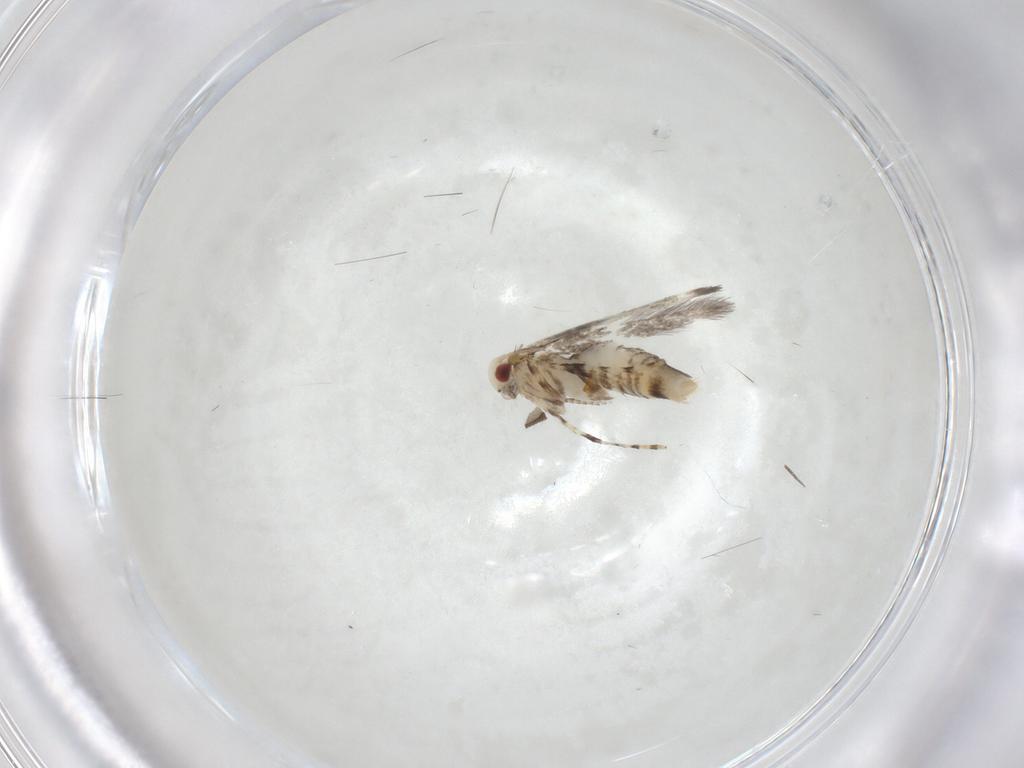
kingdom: Animalia
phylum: Arthropoda
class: Insecta
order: Lepidoptera
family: Gracillariidae
